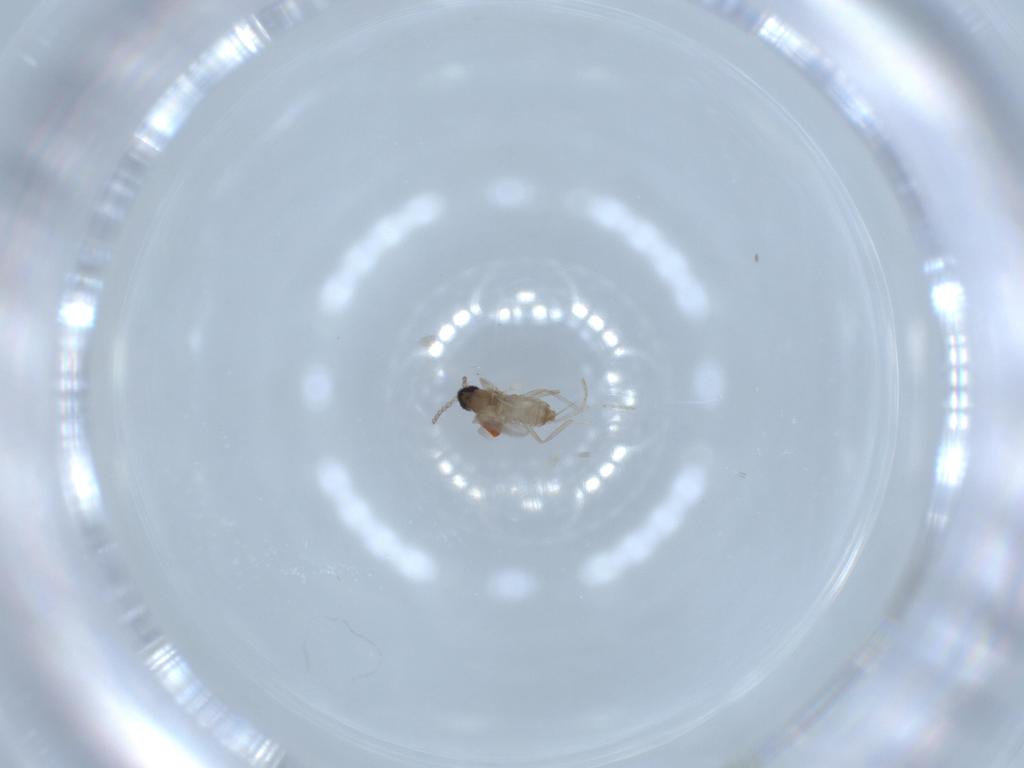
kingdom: Animalia
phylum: Arthropoda
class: Insecta
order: Diptera
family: Cecidomyiidae
